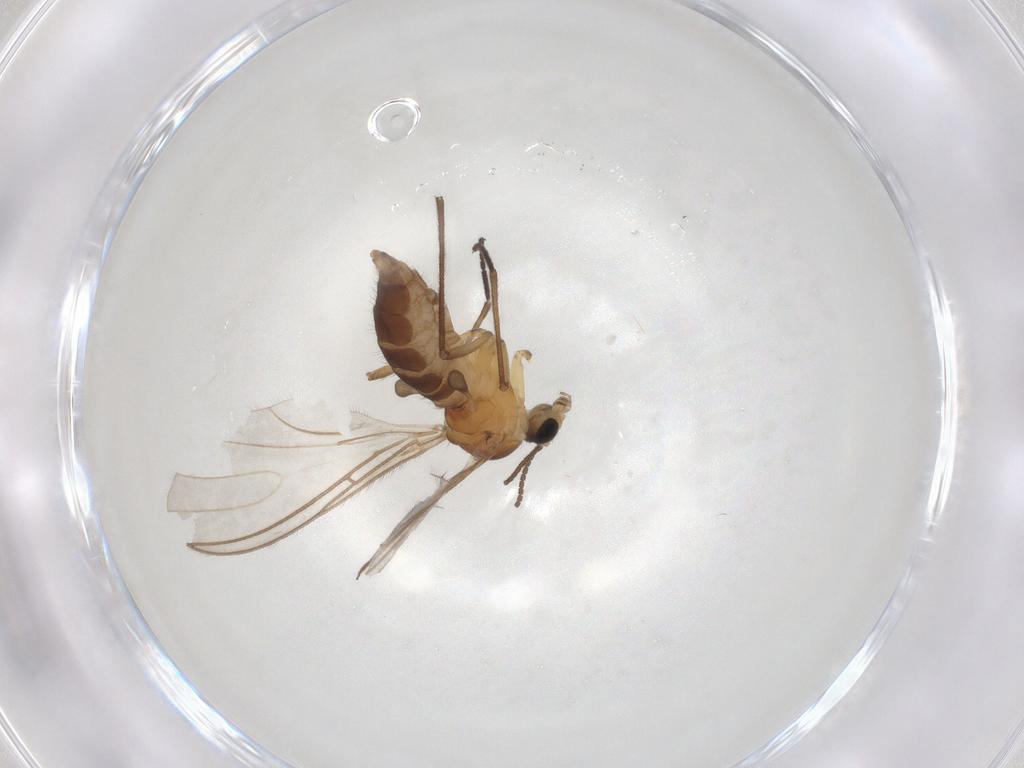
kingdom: Animalia
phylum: Arthropoda
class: Insecta
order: Diptera
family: Sciaridae
